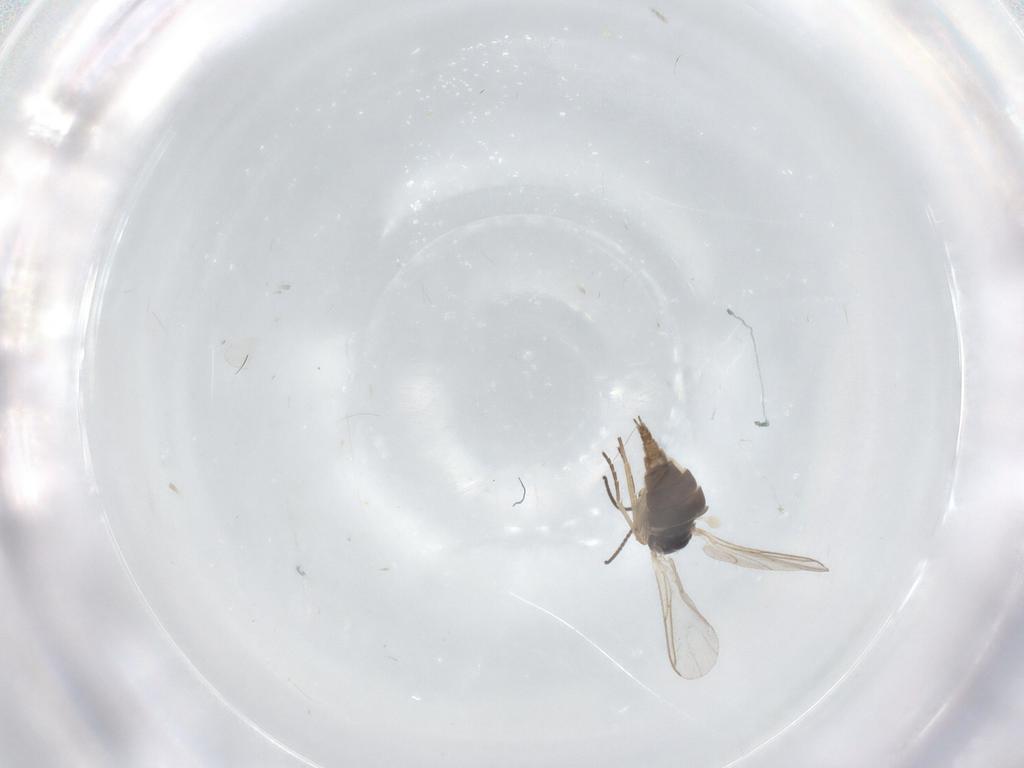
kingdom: Animalia
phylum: Arthropoda
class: Insecta
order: Diptera
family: Sciaridae
